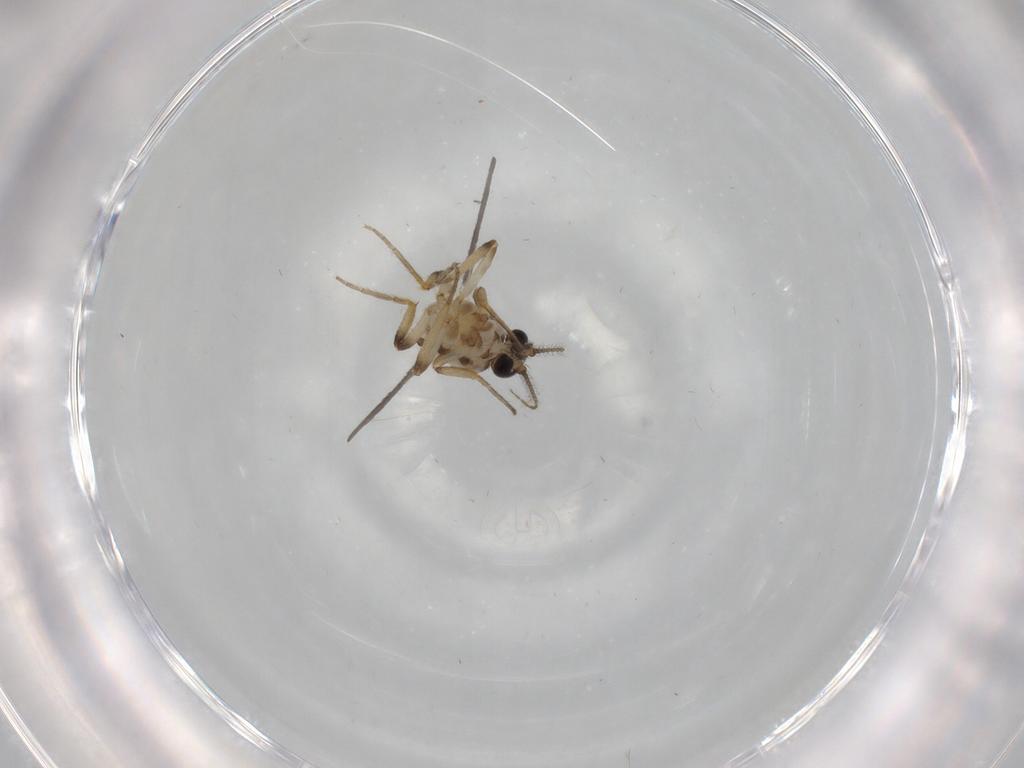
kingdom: Animalia
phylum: Arthropoda
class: Insecta
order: Diptera
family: Ceratopogonidae
